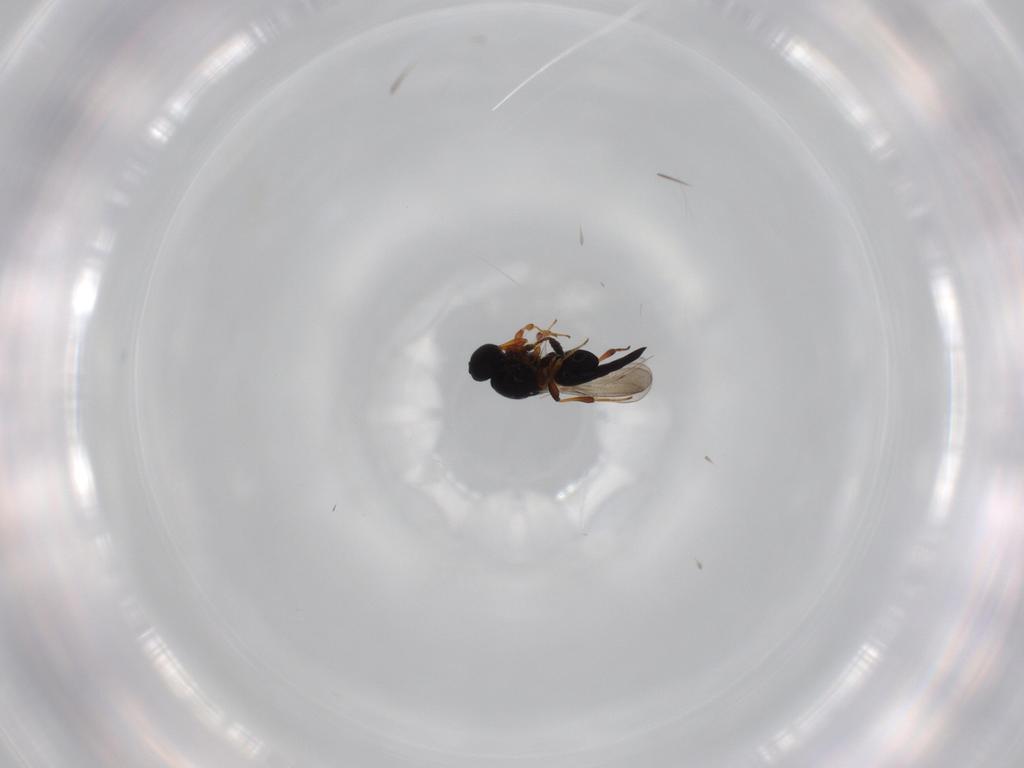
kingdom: Animalia
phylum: Arthropoda
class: Insecta
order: Hymenoptera
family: Platygastridae
